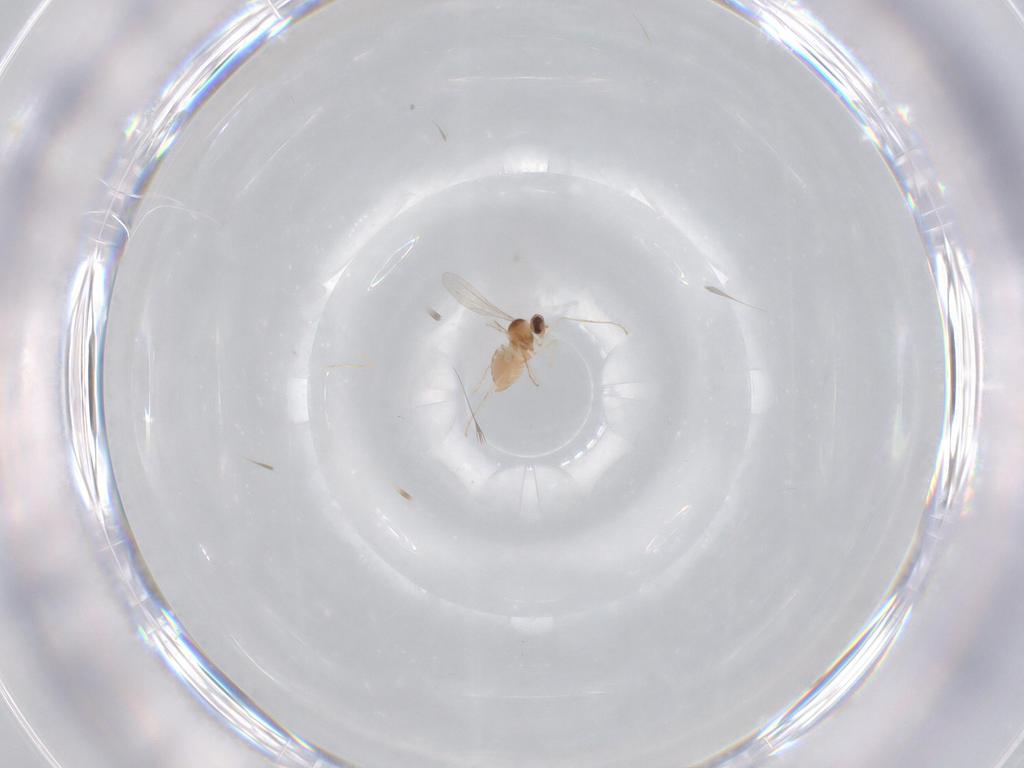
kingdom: Animalia
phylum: Arthropoda
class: Insecta
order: Diptera
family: Cecidomyiidae
